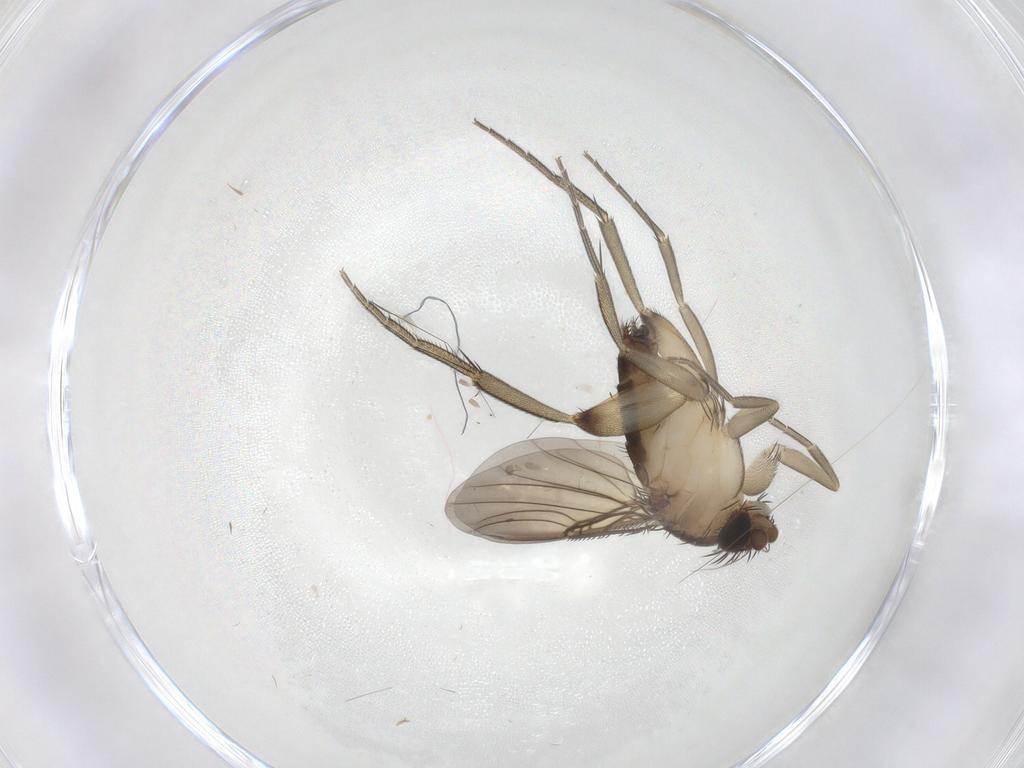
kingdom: Animalia
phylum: Arthropoda
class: Insecta
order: Diptera
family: Phoridae
